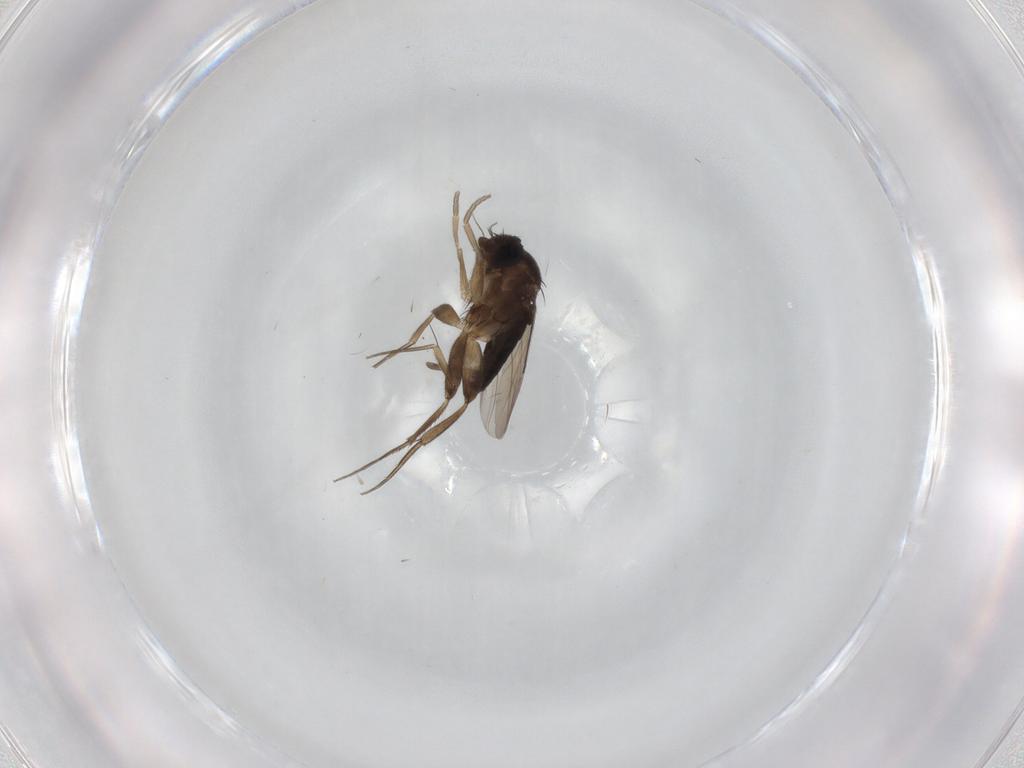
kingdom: Animalia
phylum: Arthropoda
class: Insecta
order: Diptera
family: Phoridae
